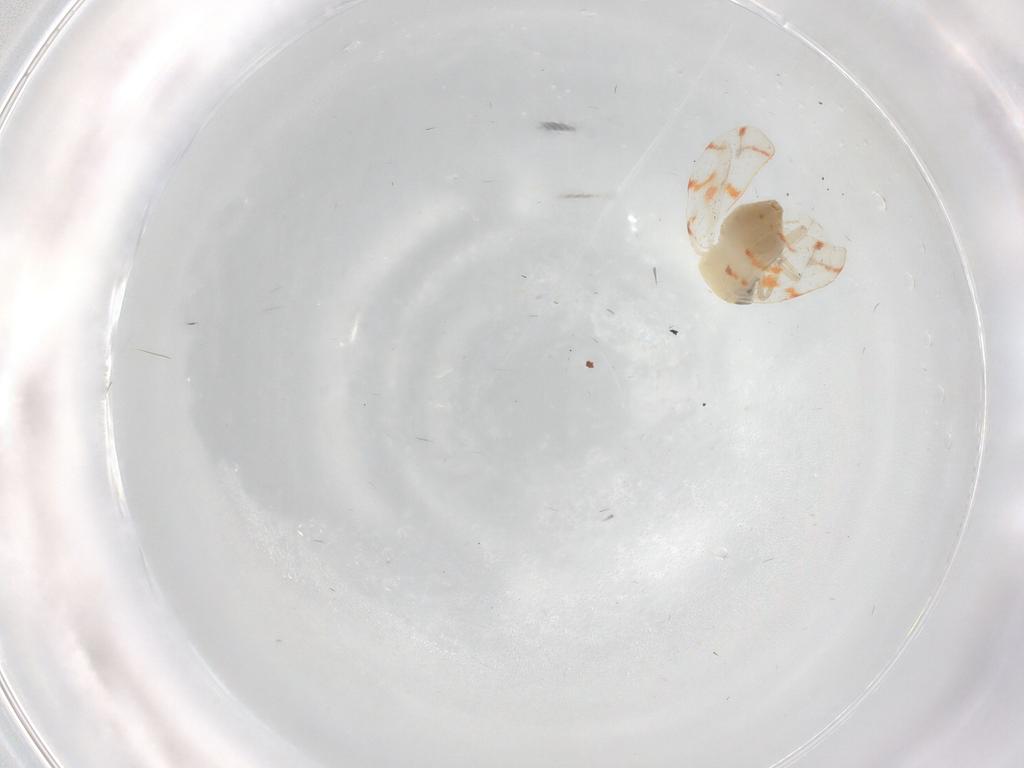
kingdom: Animalia
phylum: Arthropoda
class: Insecta
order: Hemiptera
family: Aleyrodidae
